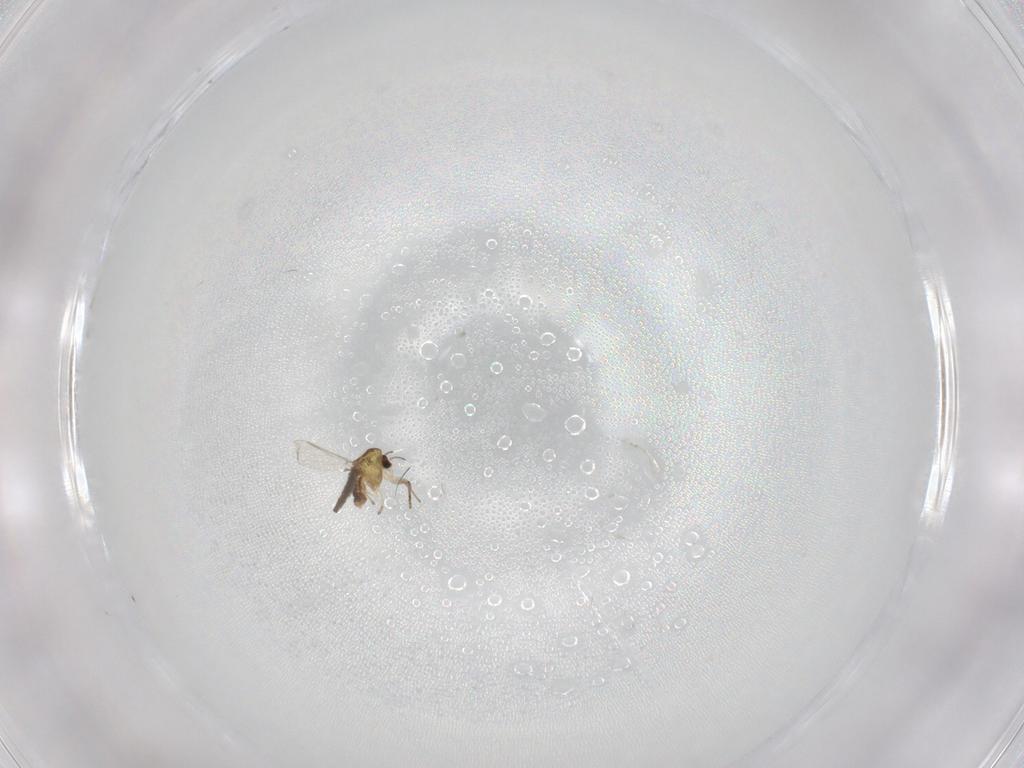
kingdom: Animalia
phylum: Arthropoda
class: Insecta
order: Diptera
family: Chironomidae
